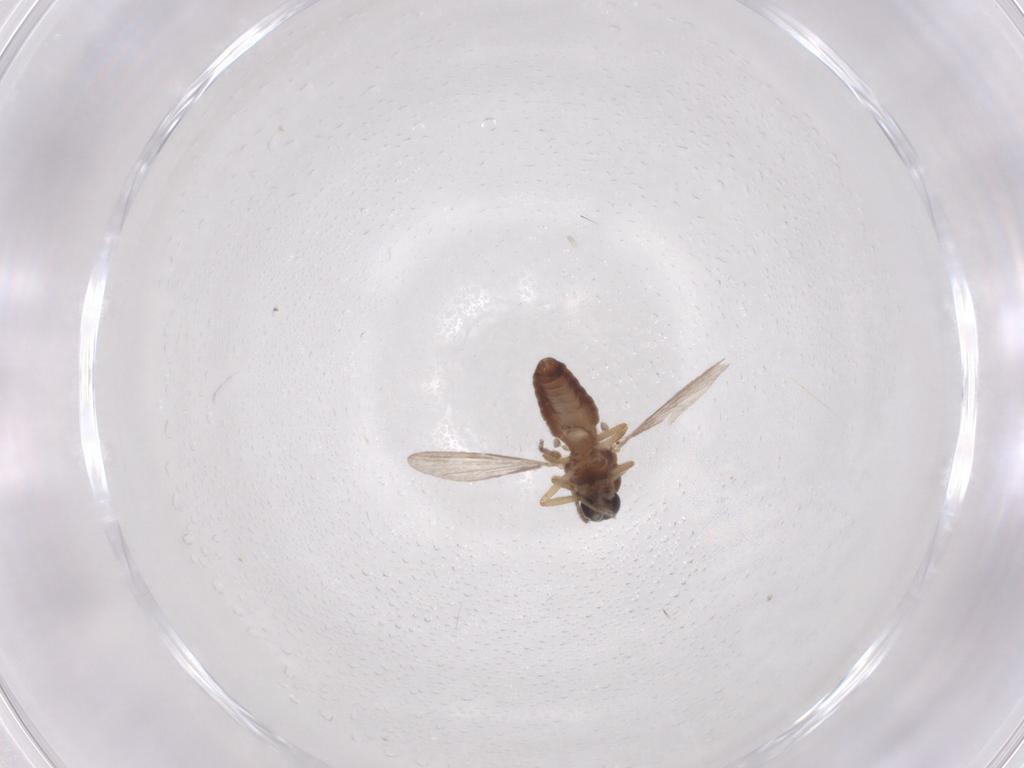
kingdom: Animalia
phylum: Arthropoda
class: Insecta
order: Diptera
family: Ceratopogonidae
